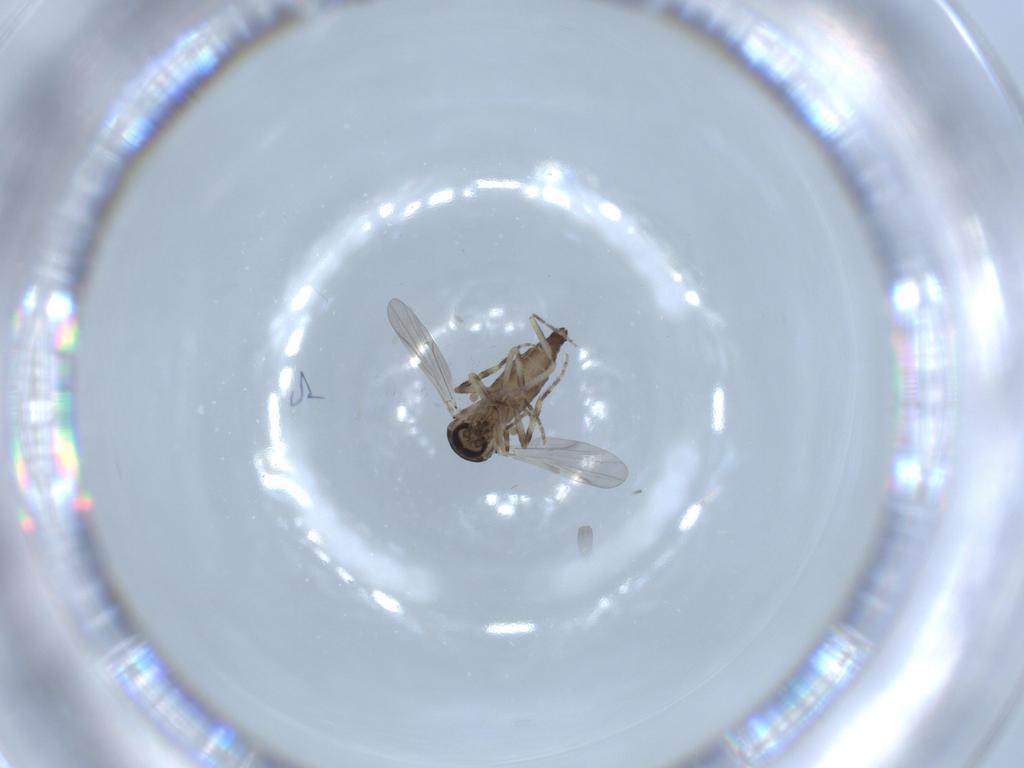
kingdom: Animalia
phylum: Arthropoda
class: Insecta
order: Diptera
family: Ceratopogonidae
